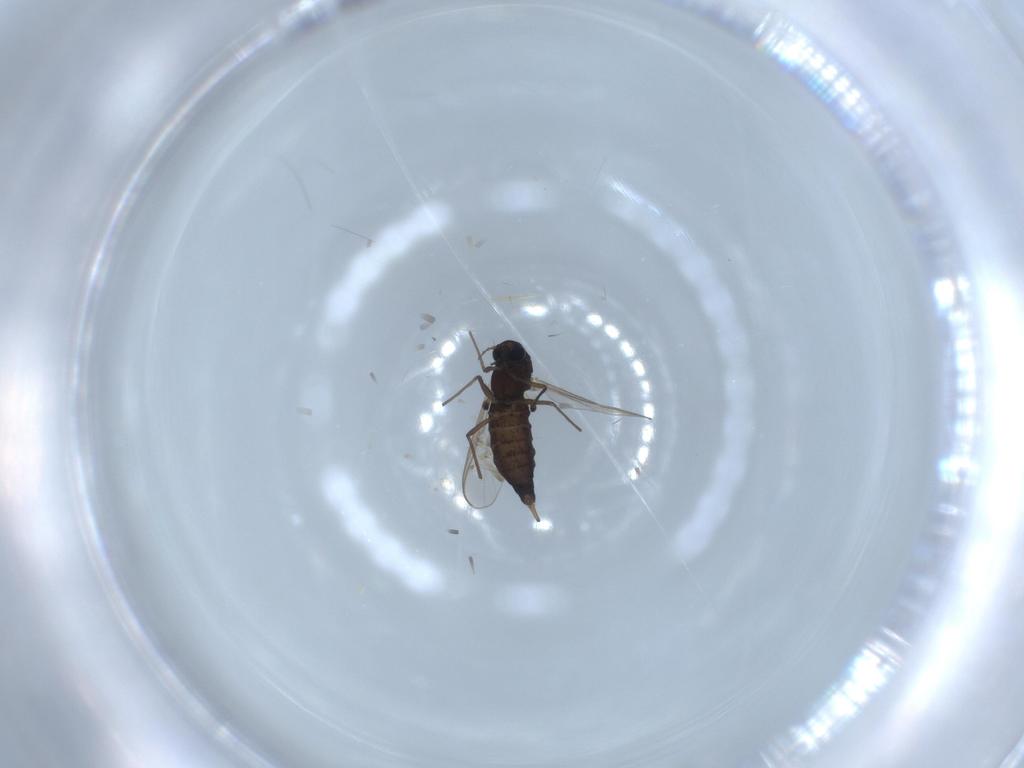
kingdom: Animalia
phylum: Arthropoda
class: Insecta
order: Diptera
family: Chironomidae
